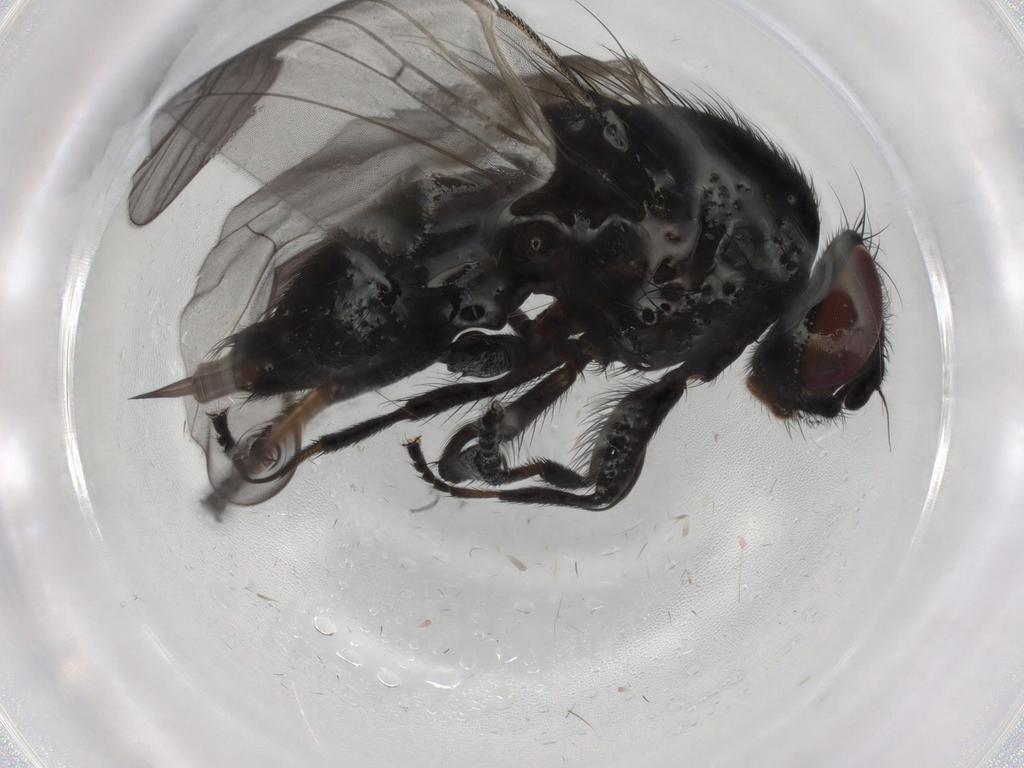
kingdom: Animalia
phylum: Arthropoda
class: Insecta
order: Diptera
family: Lonchaeidae
